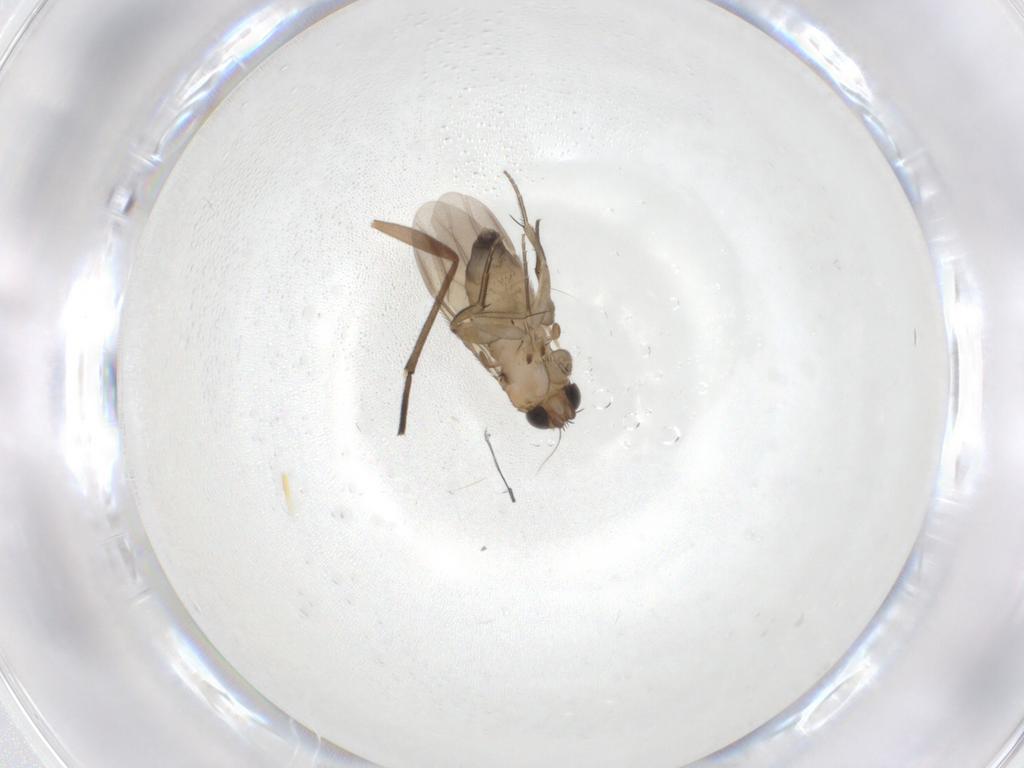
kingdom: Animalia
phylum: Arthropoda
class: Insecta
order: Diptera
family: Phoridae
